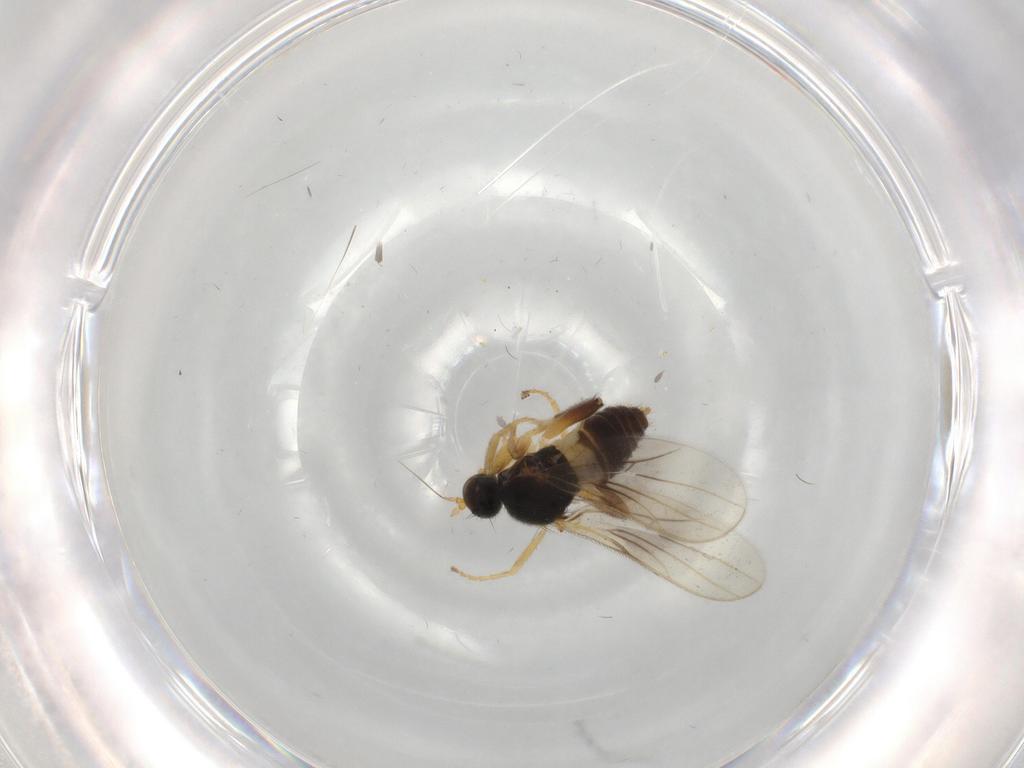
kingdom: Animalia
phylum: Arthropoda
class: Insecta
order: Diptera
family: Hybotidae
